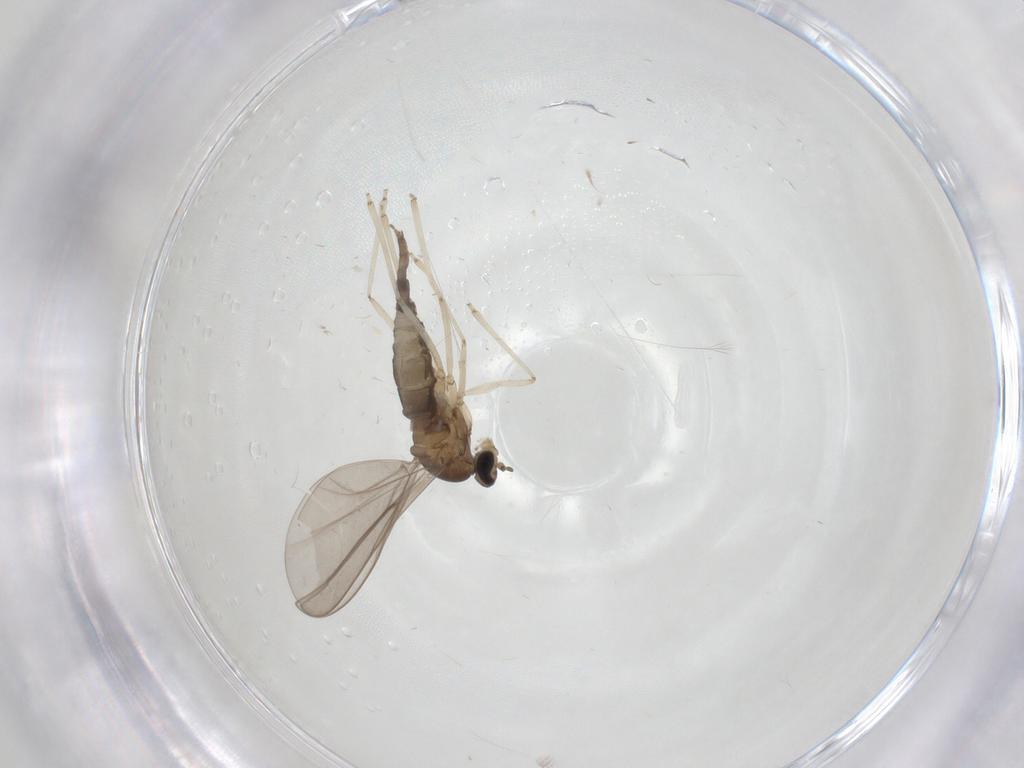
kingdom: Animalia
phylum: Arthropoda
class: Insecta
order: Diptera
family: Cecidomyiidae
